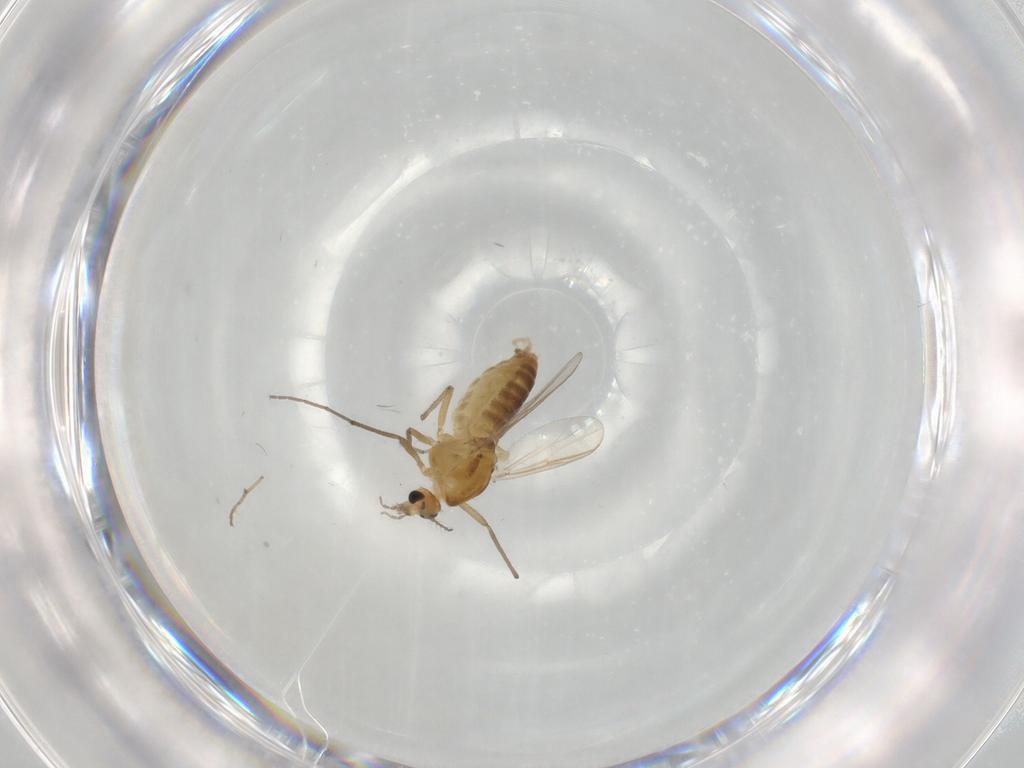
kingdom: Animalia
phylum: Arthropoda
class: Insecta
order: Diptera
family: Chironomidae
